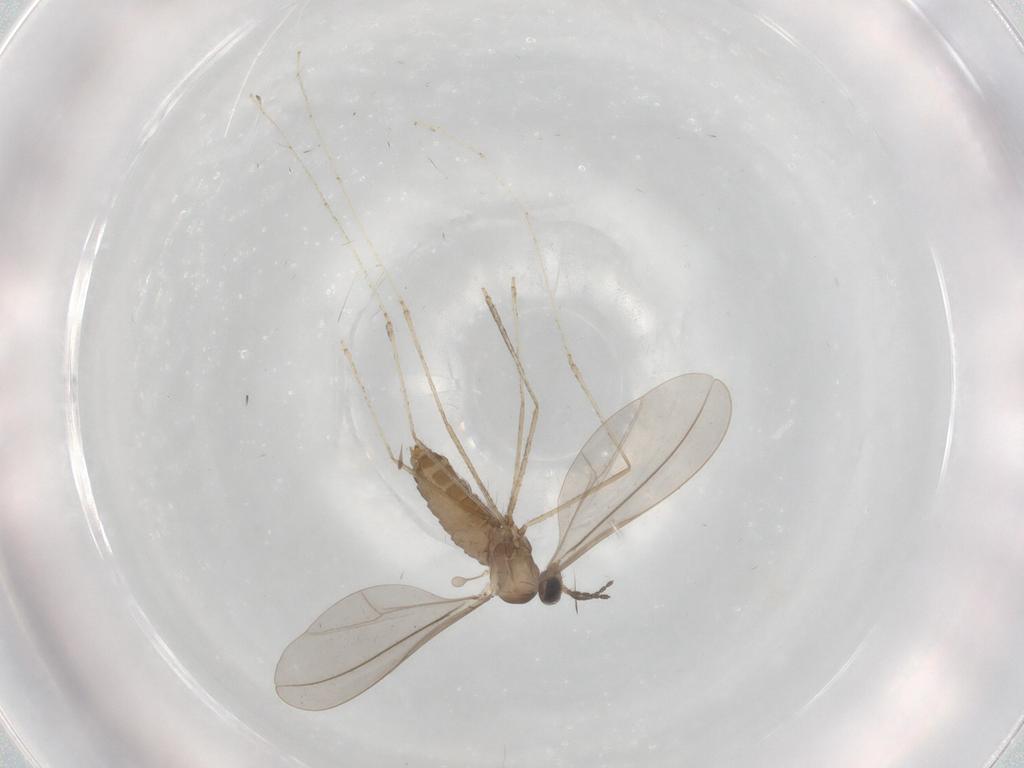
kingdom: Animalia
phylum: Arthropoda
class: Insecta
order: Diptera
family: Cecidomyiidae
